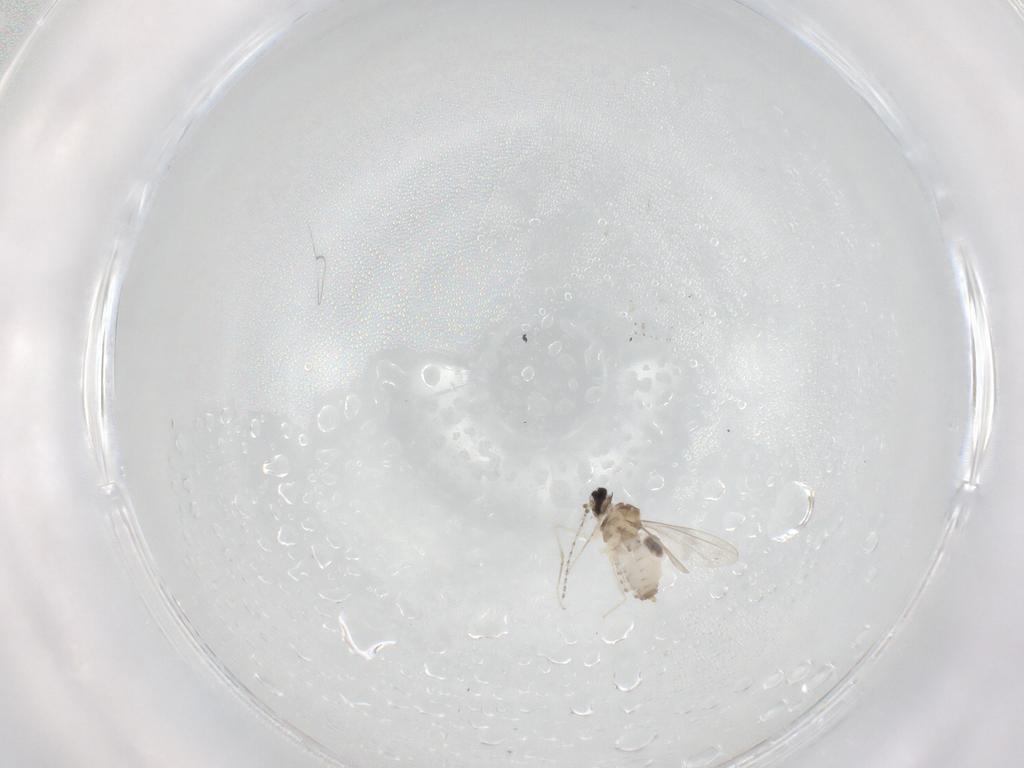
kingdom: Animalia
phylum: Arthropoda
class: Insecta
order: Diptera
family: Cecidomyiidae
